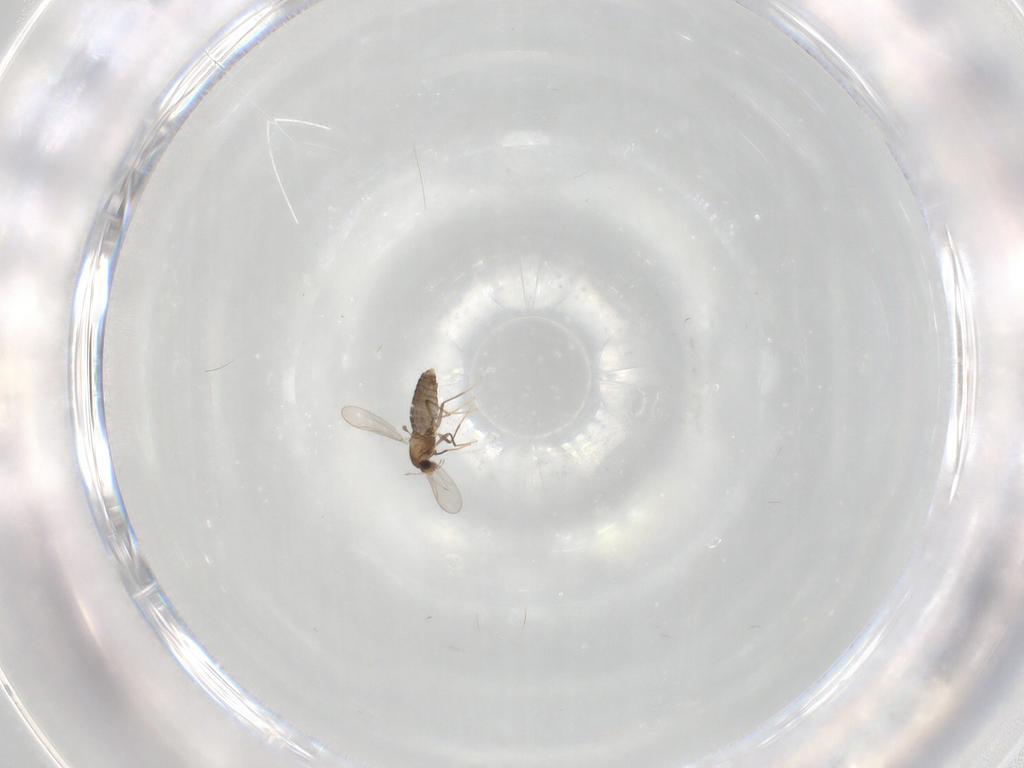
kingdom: Animalia
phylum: Arthropoda
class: Insecta
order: Diptera
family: Chironomidae
